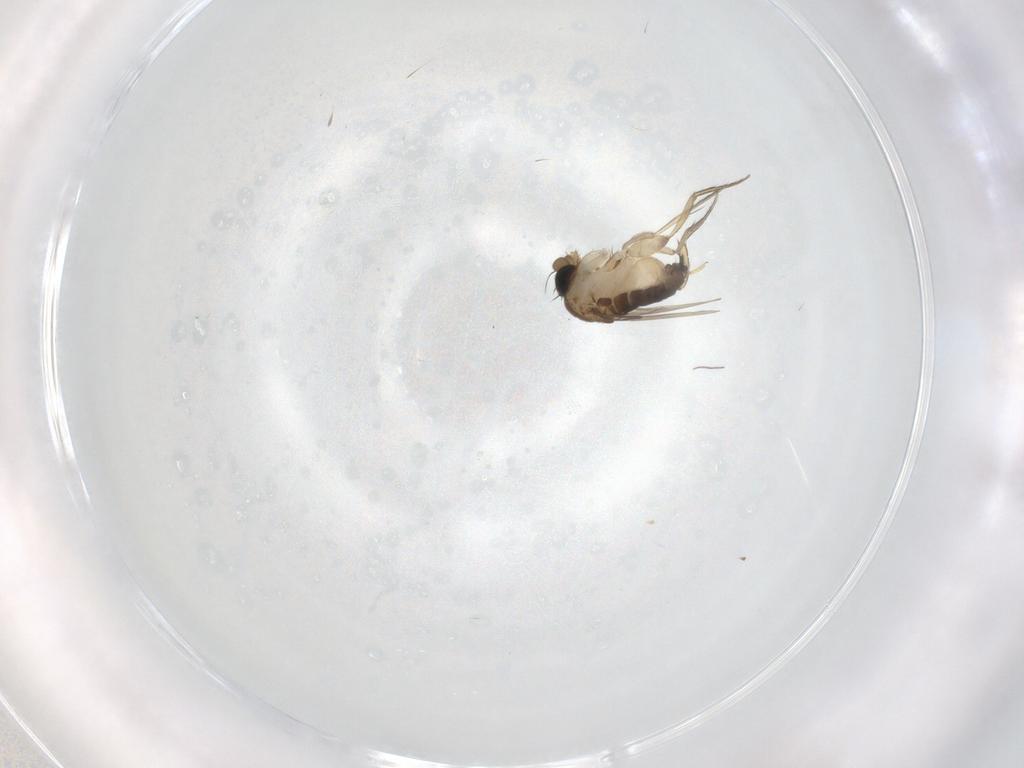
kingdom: Animalia
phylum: Arthropoda
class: Insecta
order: Diptera
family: Phoridae
